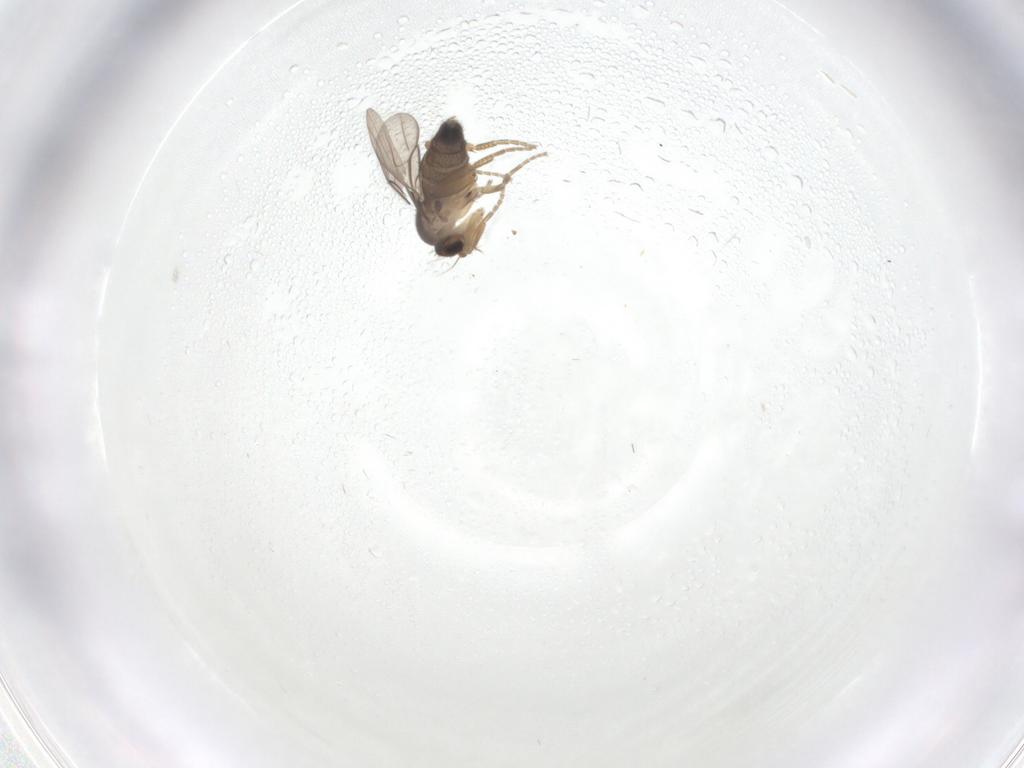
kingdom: Animalia
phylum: Arthropoda
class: Insecta
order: Diptera
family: Phoridae
